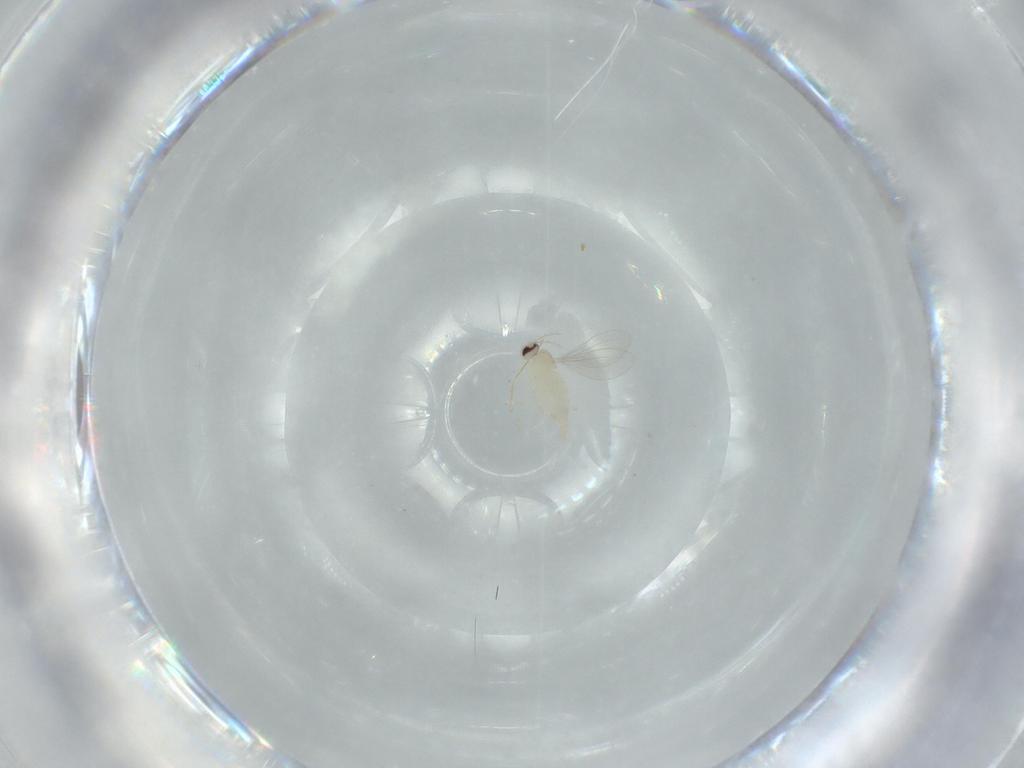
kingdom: Animalia
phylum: Arthropoda
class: Insecta
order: Diptera
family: Cecidomyiidae
